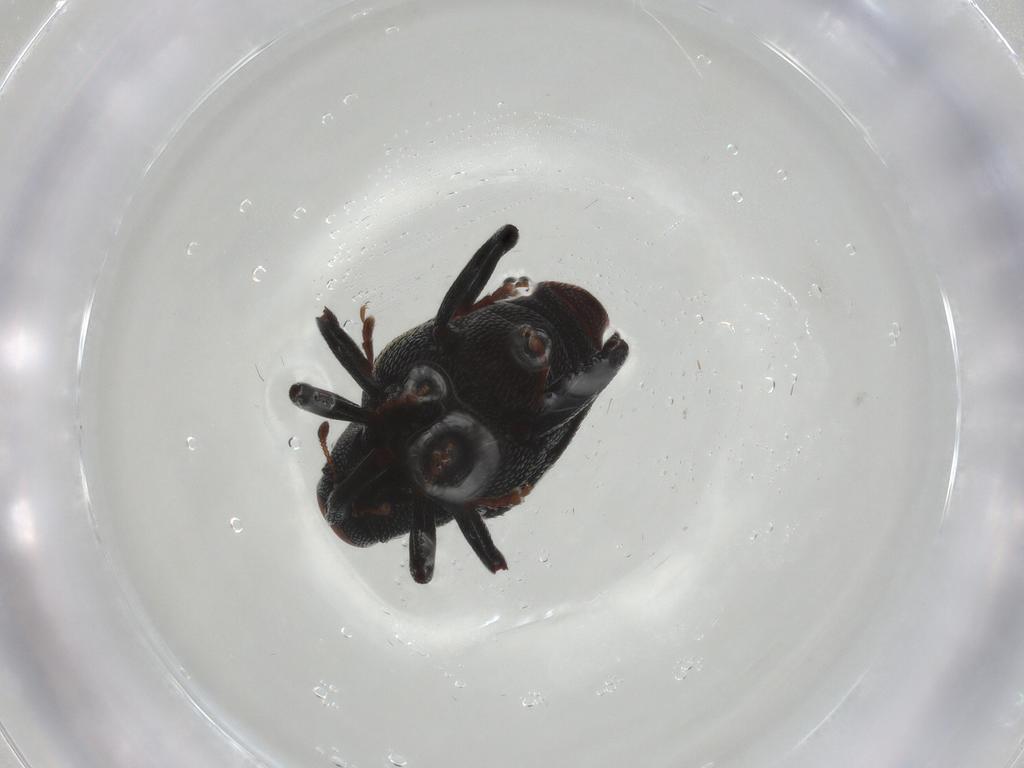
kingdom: Animalia
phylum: Arthropoda
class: Insecta
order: Coleoptera
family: Curculionidae
